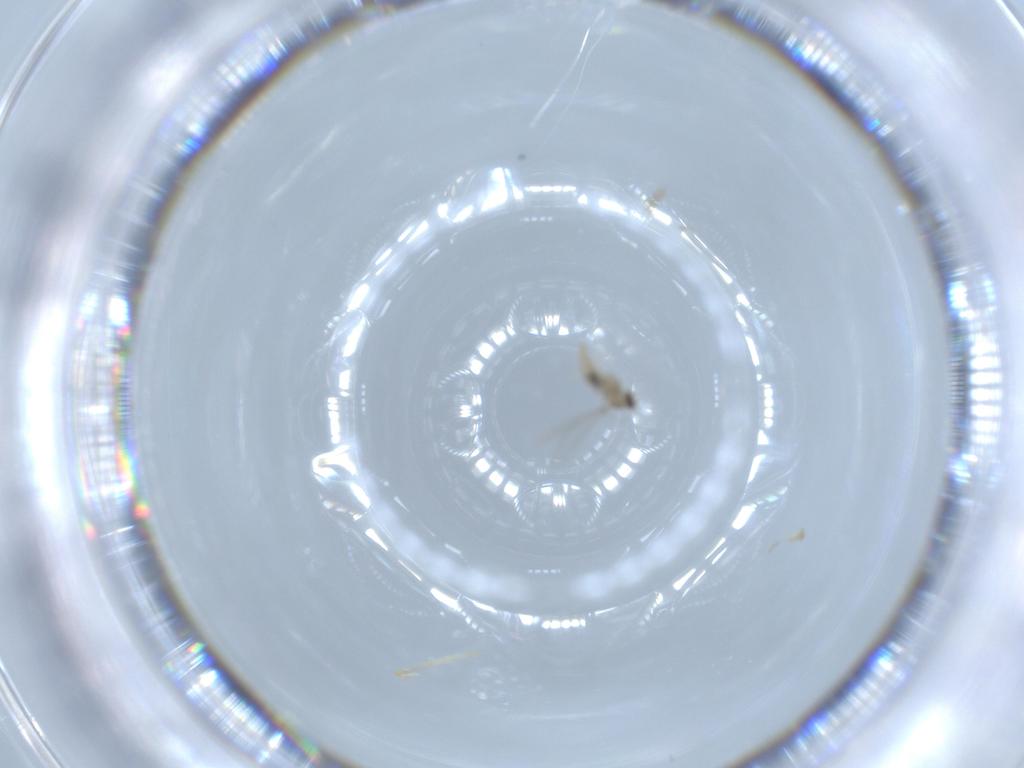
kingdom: Animalia
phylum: Arthropoda
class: Insecta
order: Diptera
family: Cecidomyiidae
